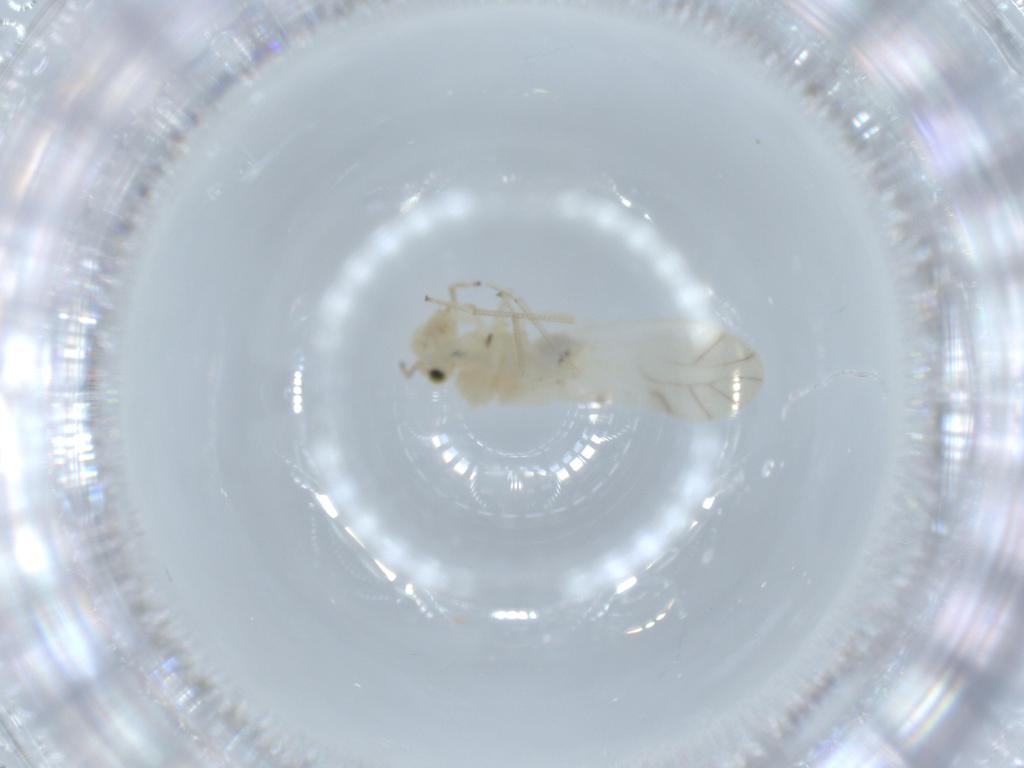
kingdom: Animalia
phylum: Arthropoda
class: Insecta
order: Psocodea
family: Caeciliusidae
